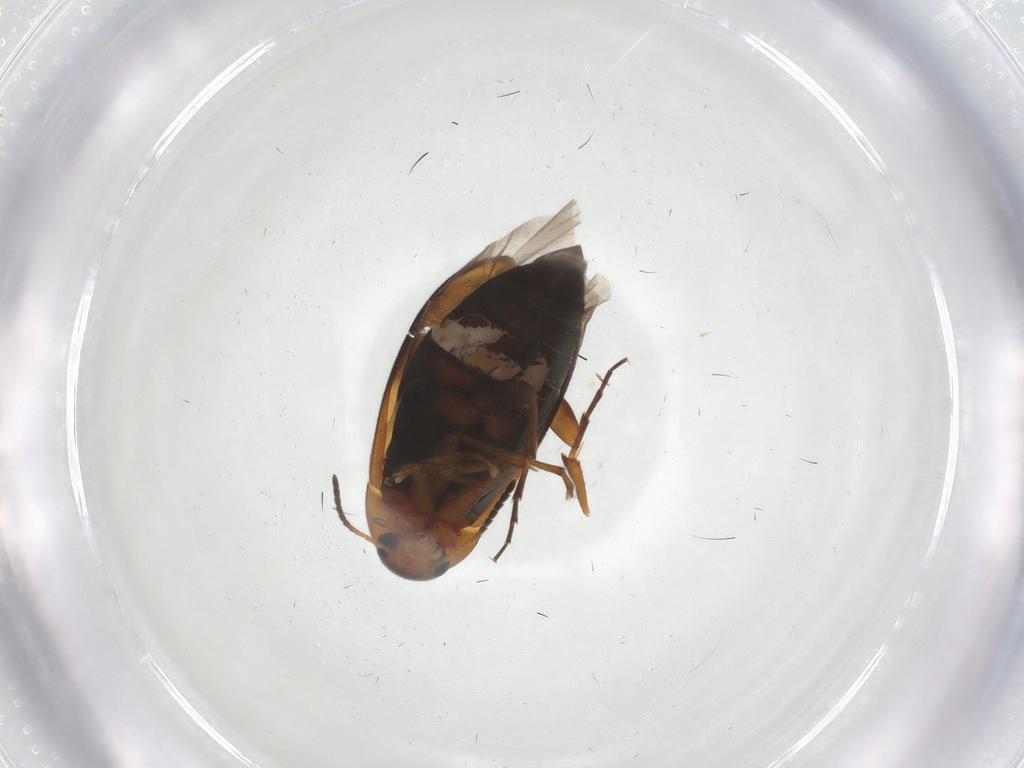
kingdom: Animalia
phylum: Arthropoda
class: Insecta
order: Coleoptera
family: Scraptiidae
